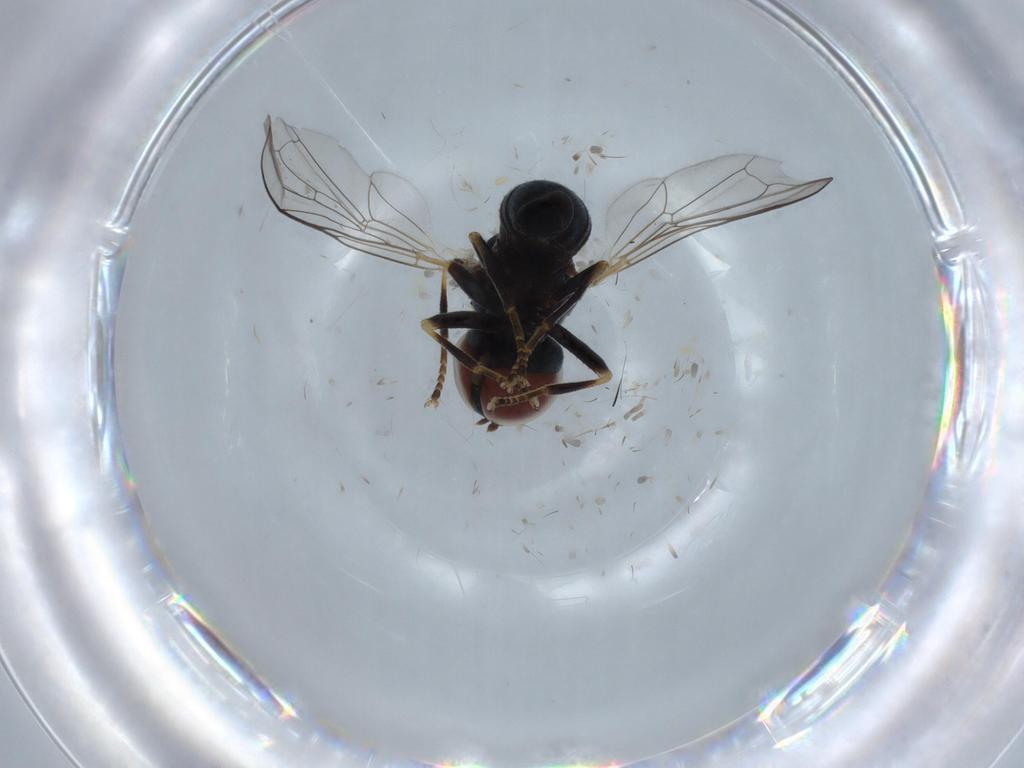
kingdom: Animalia
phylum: Arthropoda
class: Insecta
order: Diptera
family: Pipunculidae
